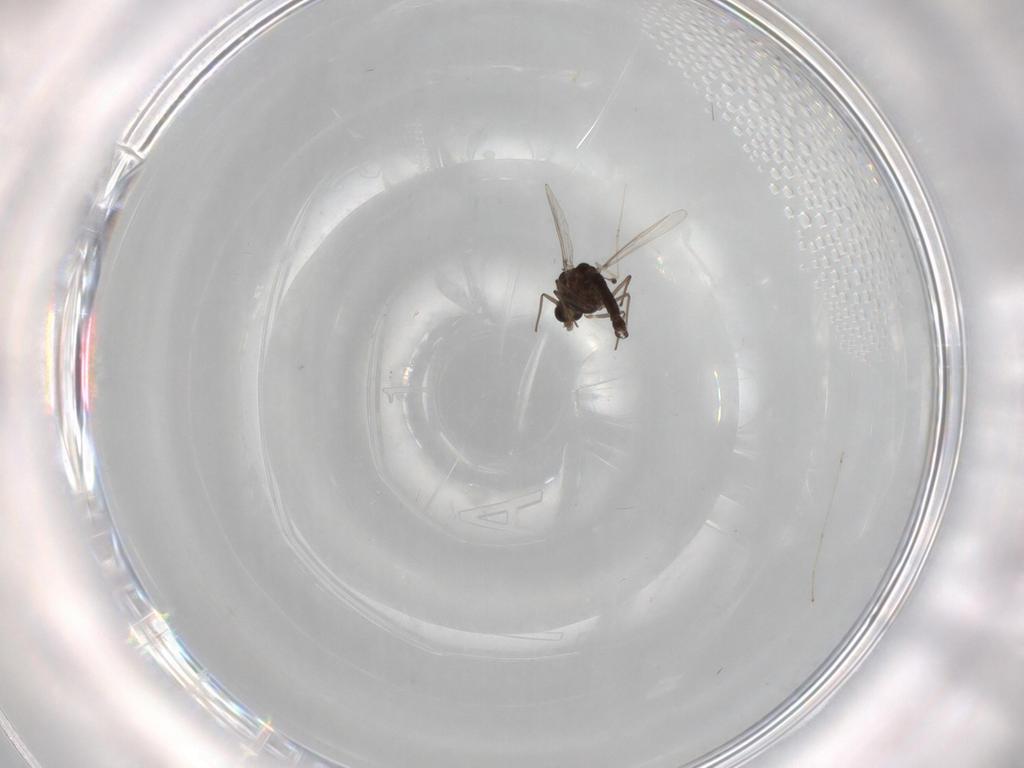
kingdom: Animalia
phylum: Arthropoda
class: Insecta
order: Diptera
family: Chironomidae
